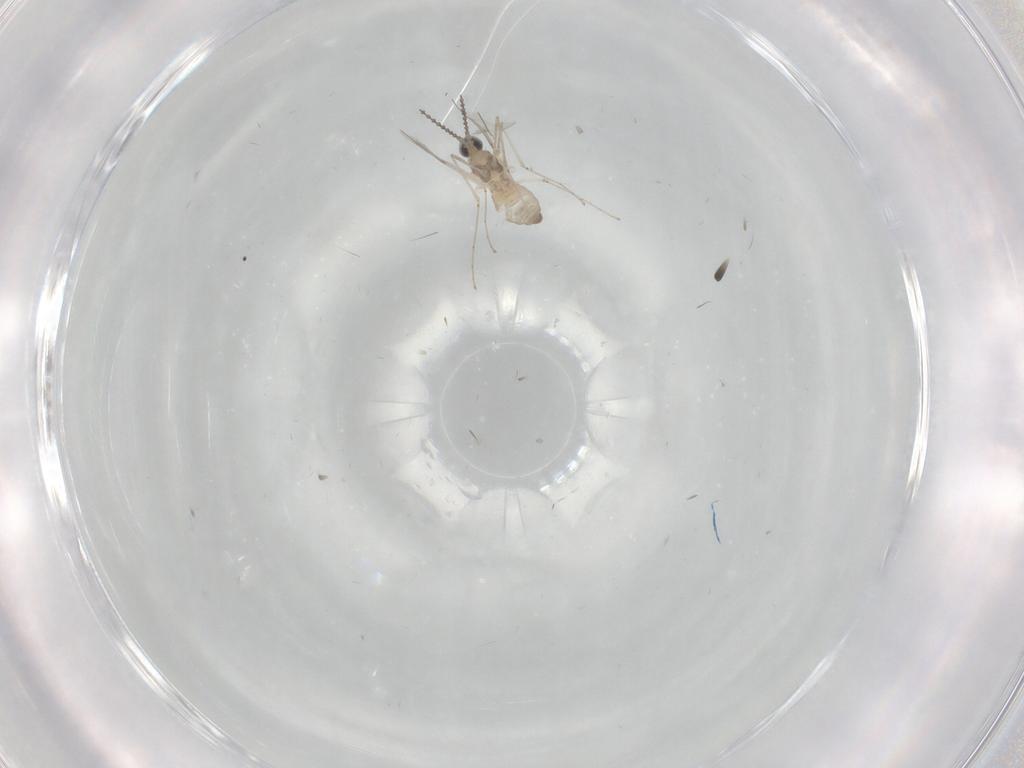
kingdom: Animalia
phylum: Arthropoda
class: Insecta
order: Diptera
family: Cecidomyiidae
